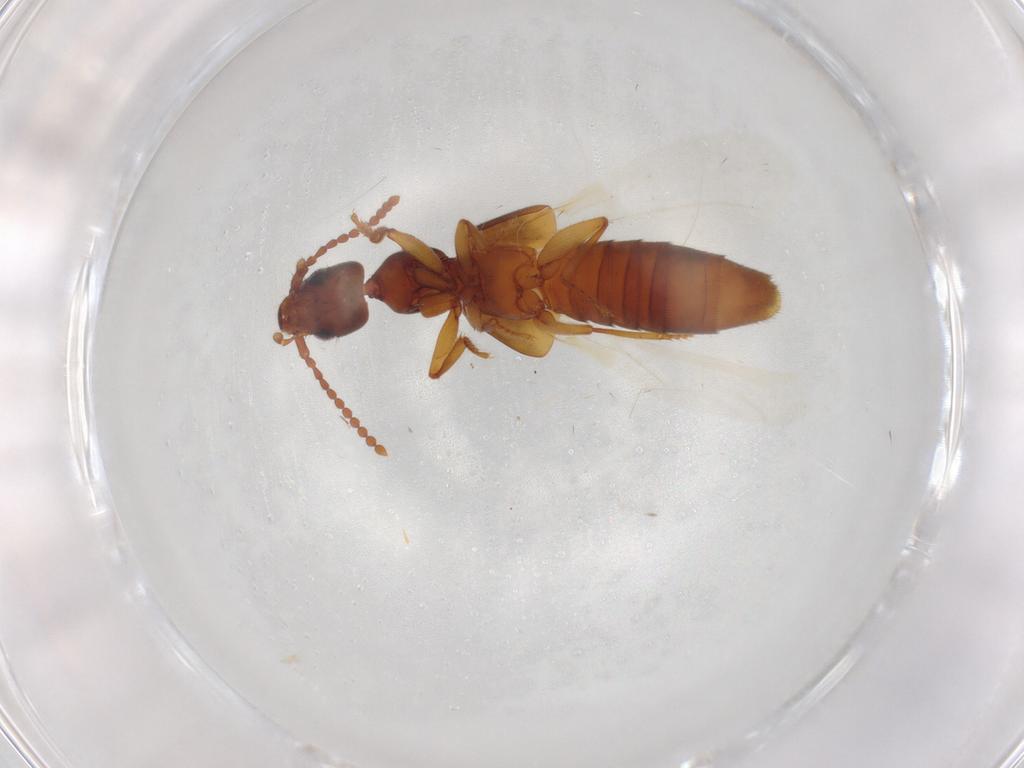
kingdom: Animalia
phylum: Arthropoda
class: Insecta
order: Coleoptera
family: Staphylinidae
